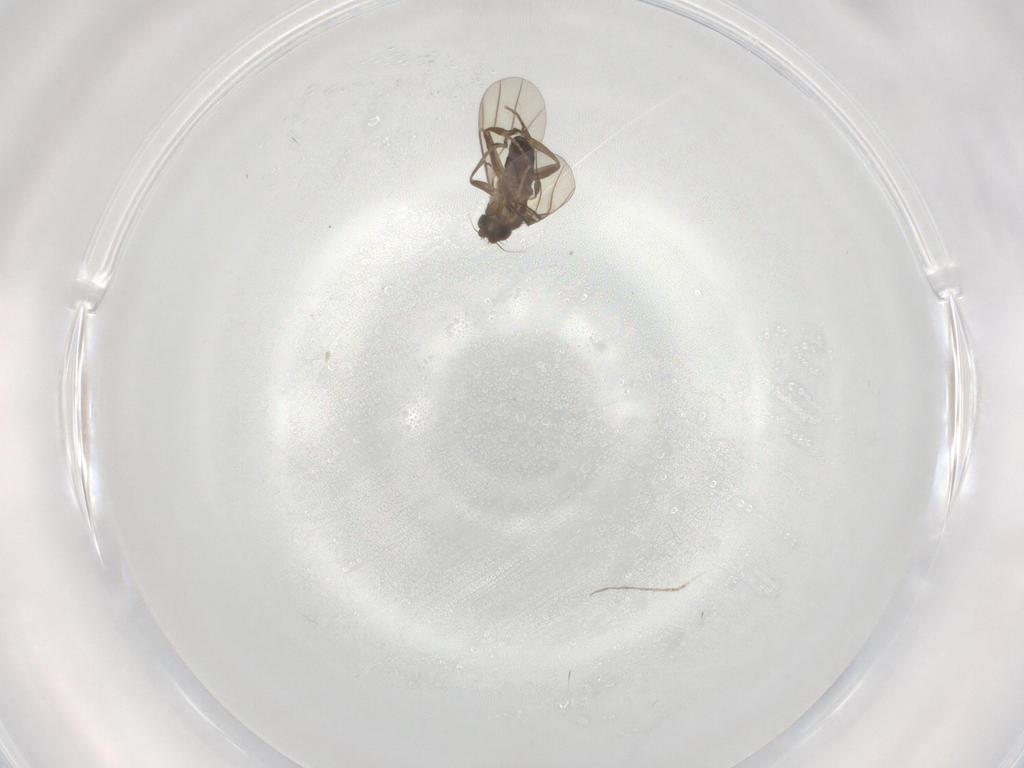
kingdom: Animalia
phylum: Arthropoda
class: Insecta
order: Diptera
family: Phoridae
